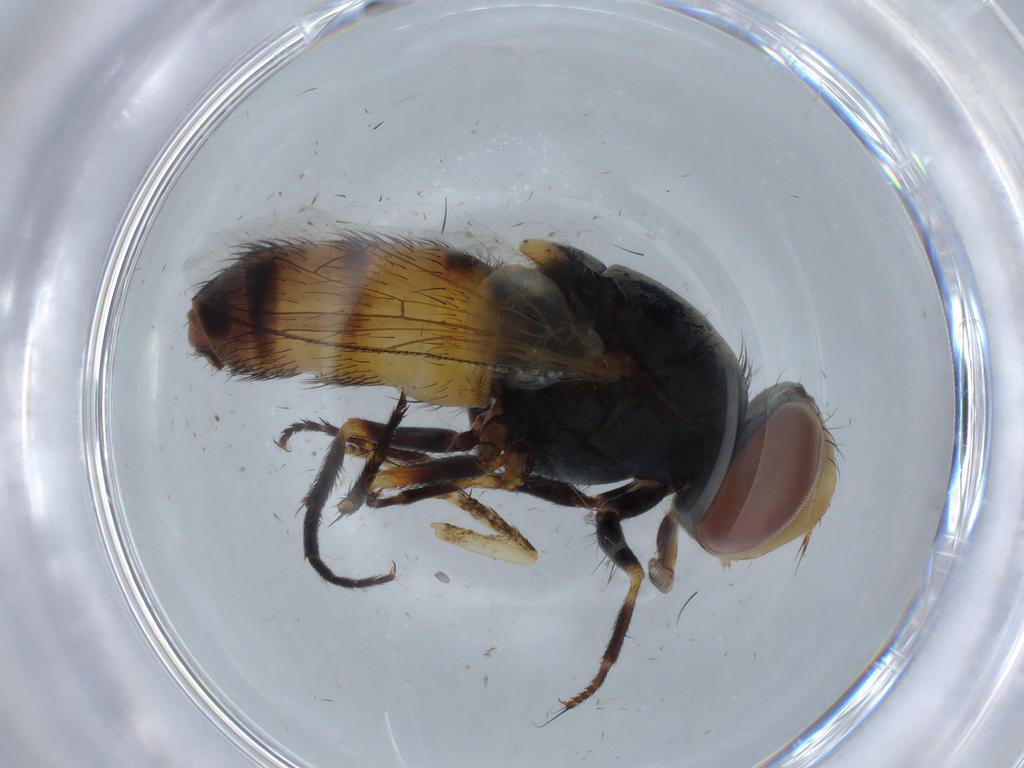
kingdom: Animalia
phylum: Arthropoda
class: Insecta
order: Diptera
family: Sarcophagidae
